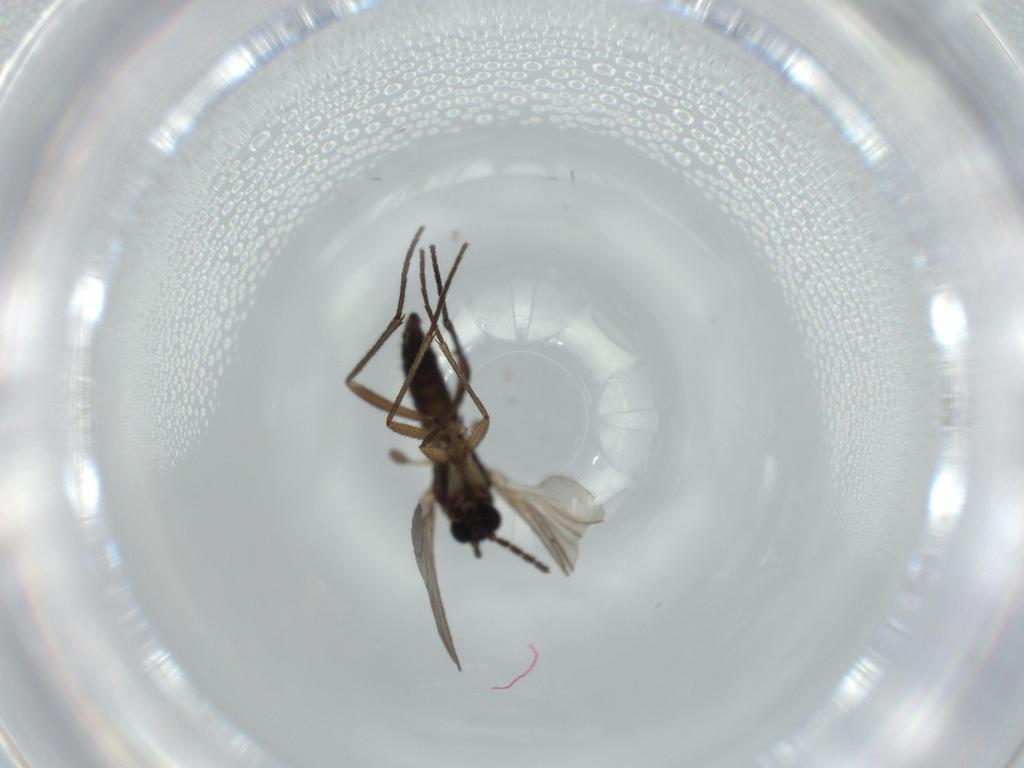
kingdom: Animalia
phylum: Arthropoda
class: Insecta
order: Diptera
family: Sciaridae
